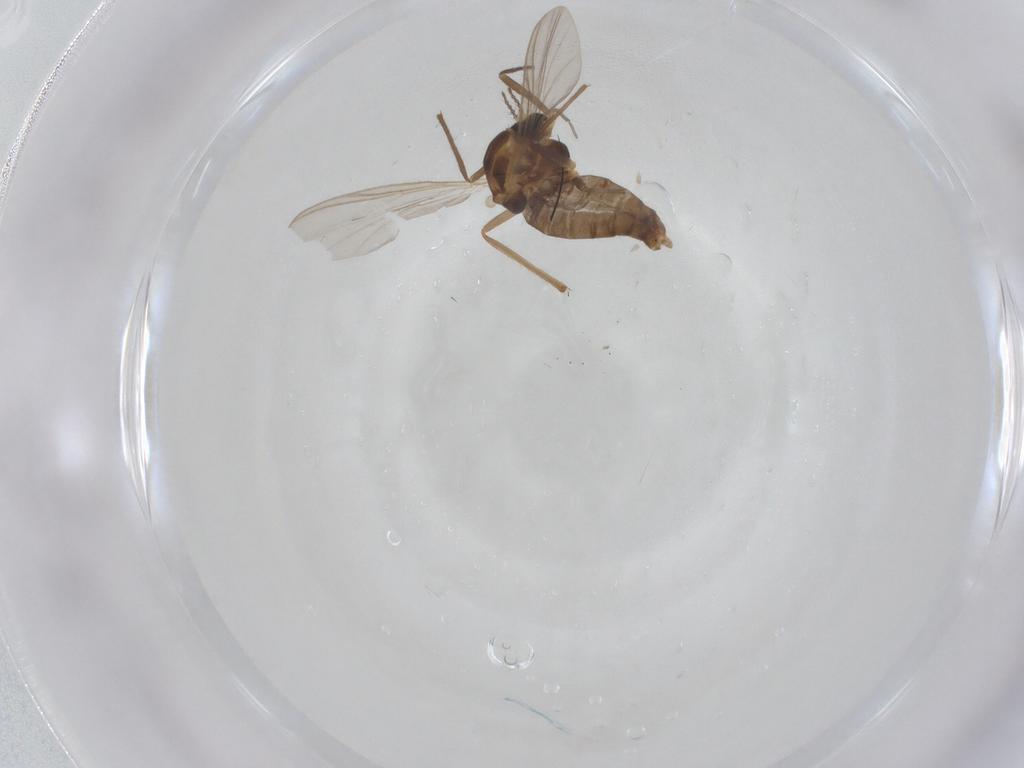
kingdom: Animalia
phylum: Arthropoda
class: Insecta
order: Diptera
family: Chironomidae
